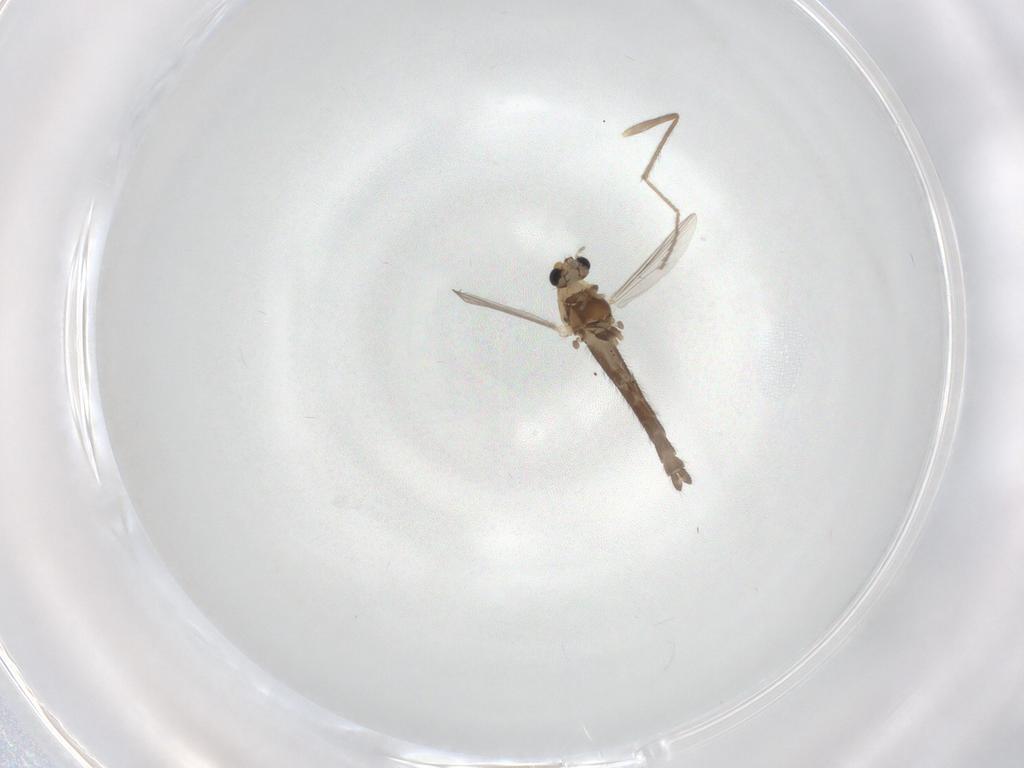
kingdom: Animalia
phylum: Arthropoda
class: Insecta
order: Diptera
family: Chironomidae
